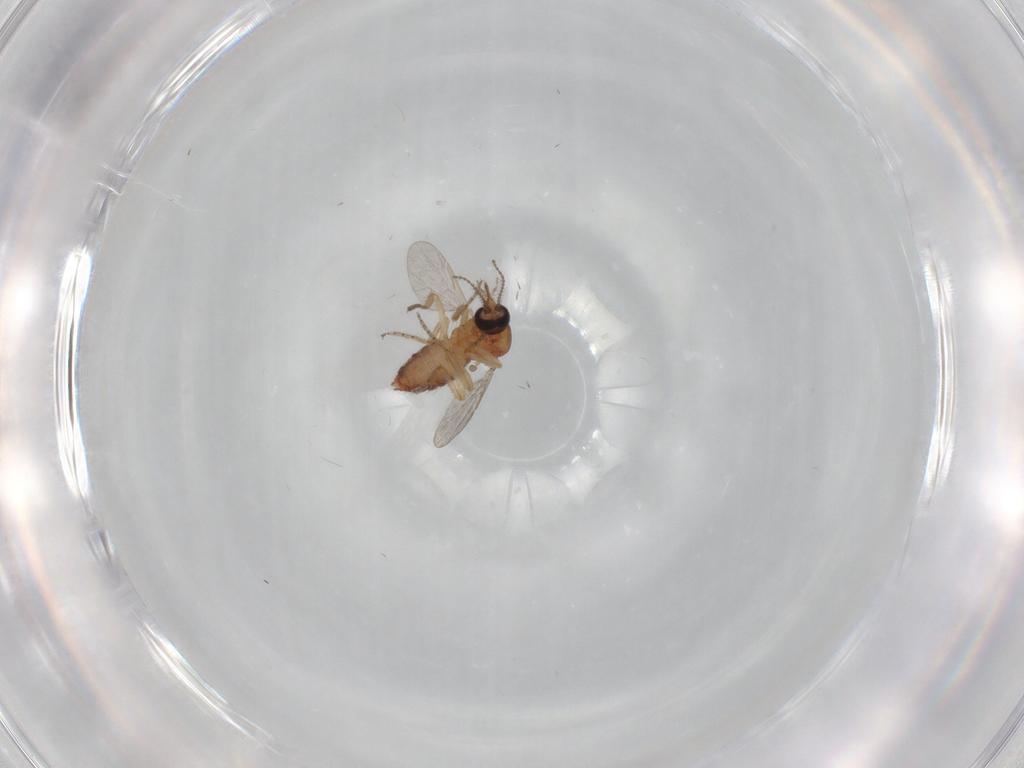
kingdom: Animalia
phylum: Arthropoda
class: Insecta
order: Diptera
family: Ceratopogonidae
